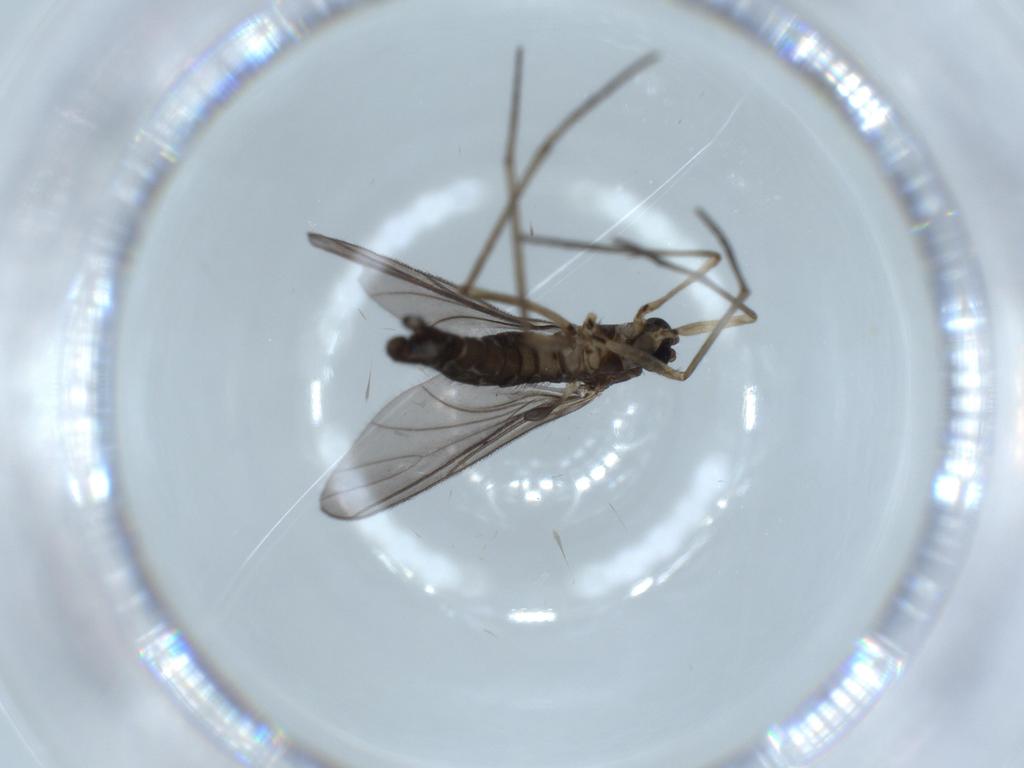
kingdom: Animalia
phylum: Arthropoda
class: Insecta
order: Diptera
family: Sciaridae
